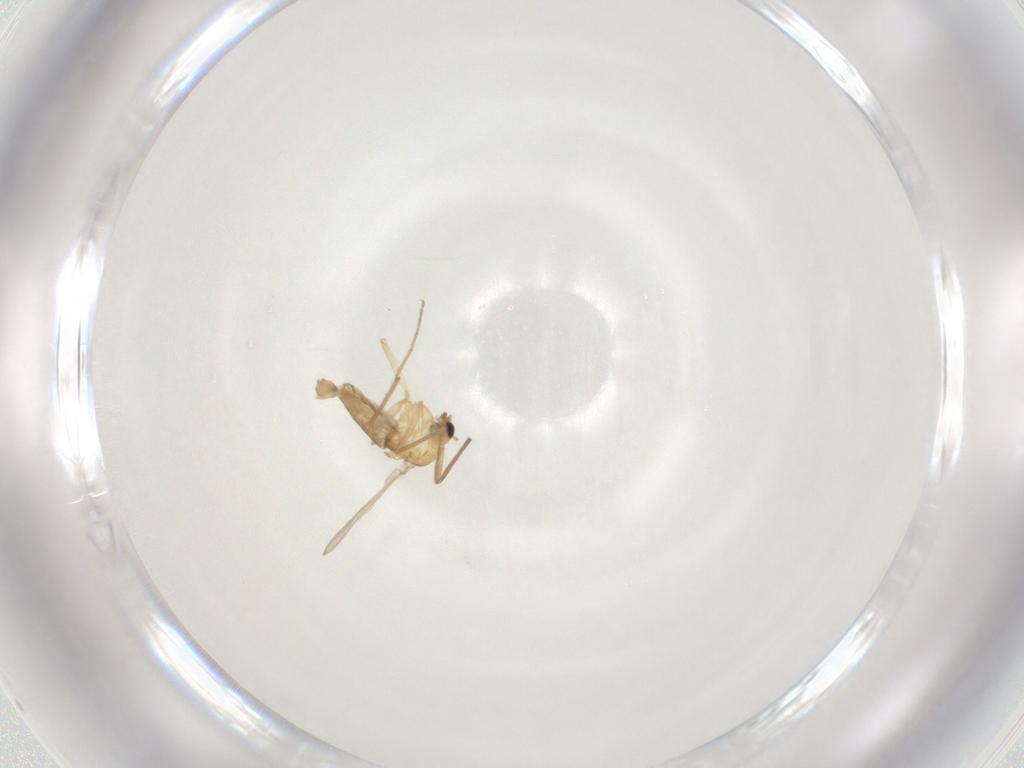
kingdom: Animalia
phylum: Arthropoda
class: Insecta
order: Diptera
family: Chironomidae
